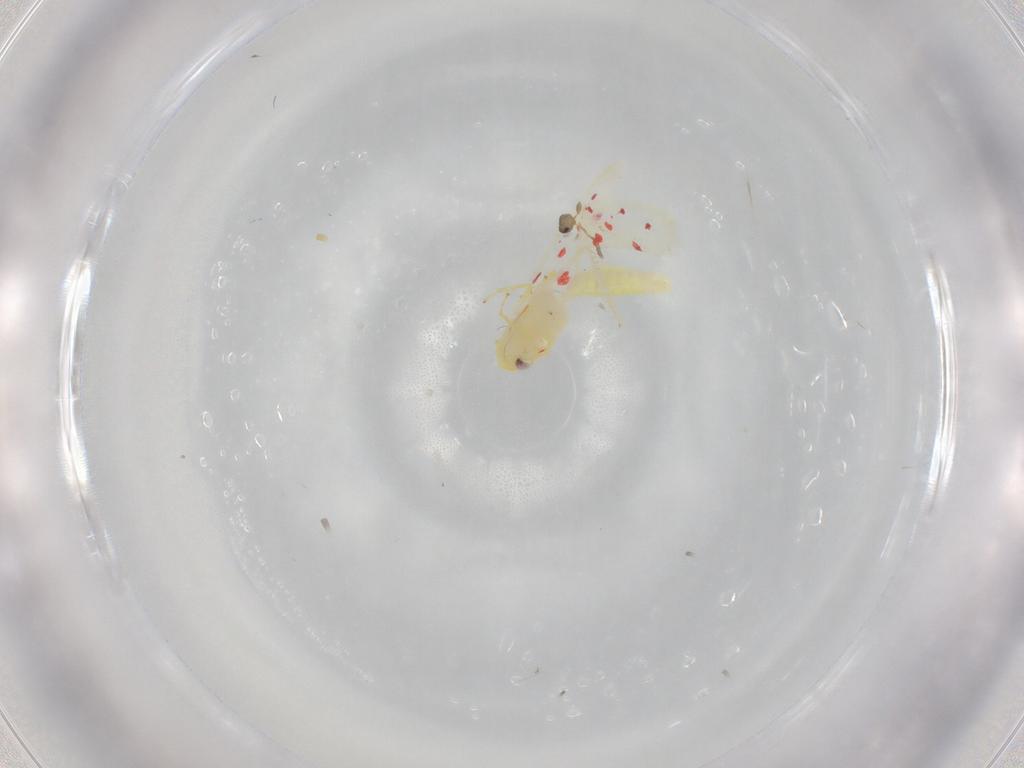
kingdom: Animalia
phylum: Arthropoda
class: Insecta
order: Hemiptera
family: Cicadellidae
